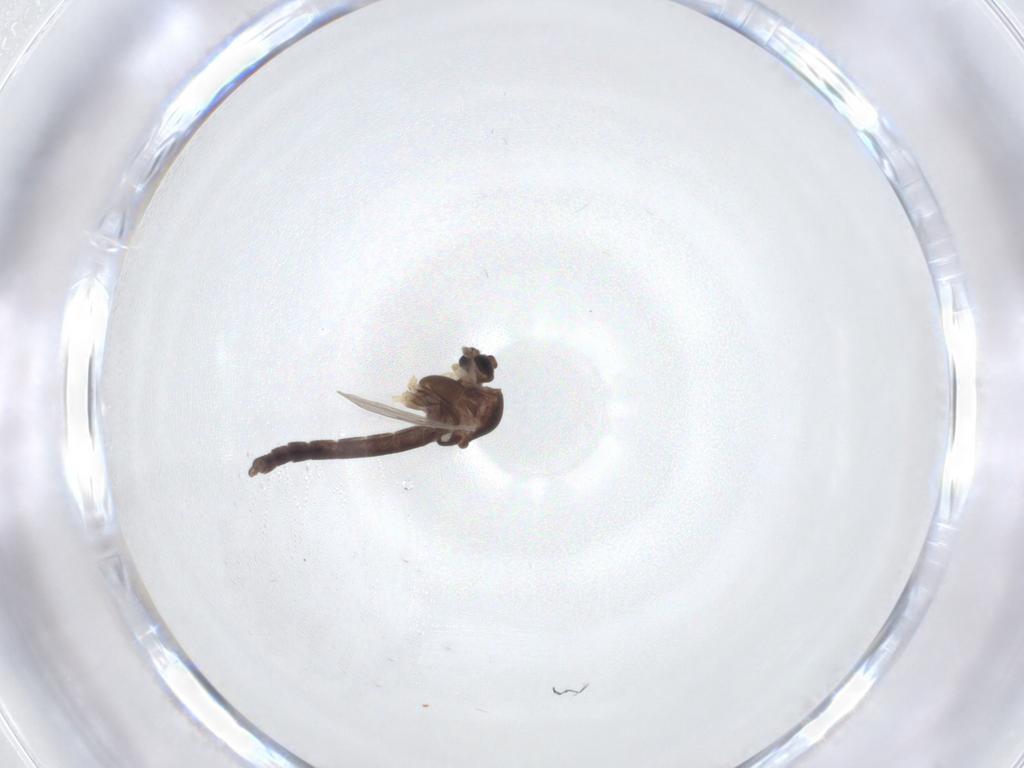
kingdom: Animalia
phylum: Arthropoda
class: Insecta
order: Diptera
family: Chironomidae
